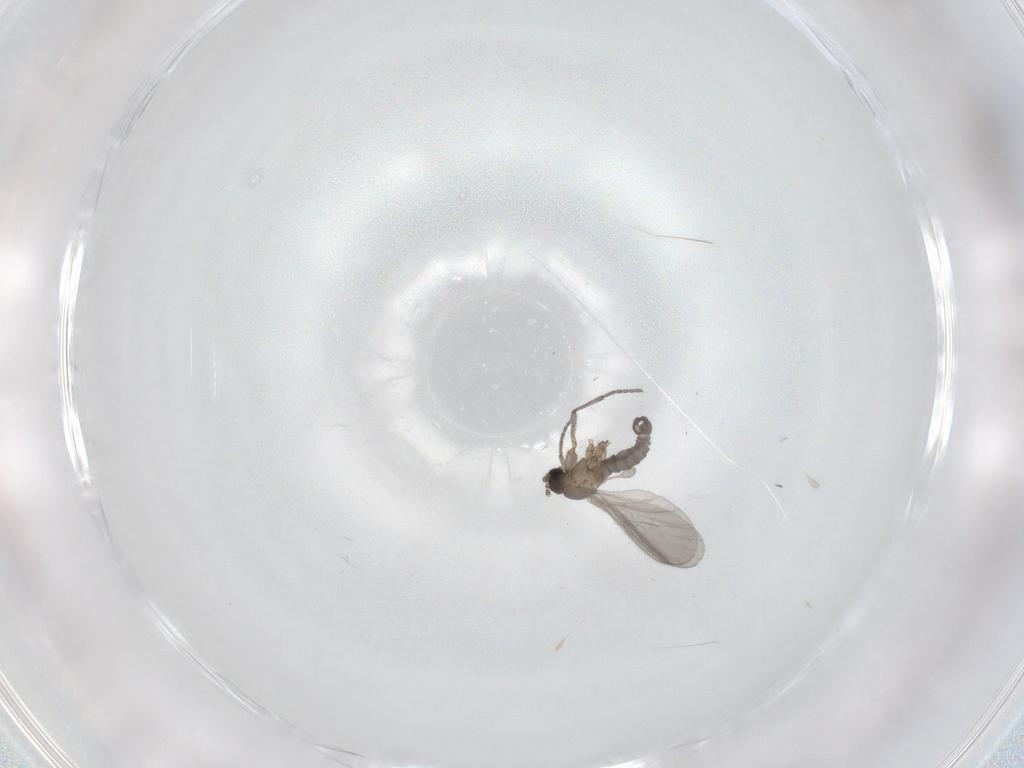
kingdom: Animalia
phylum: Arthropoda
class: Insecta
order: Diptera
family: Sciaridae
